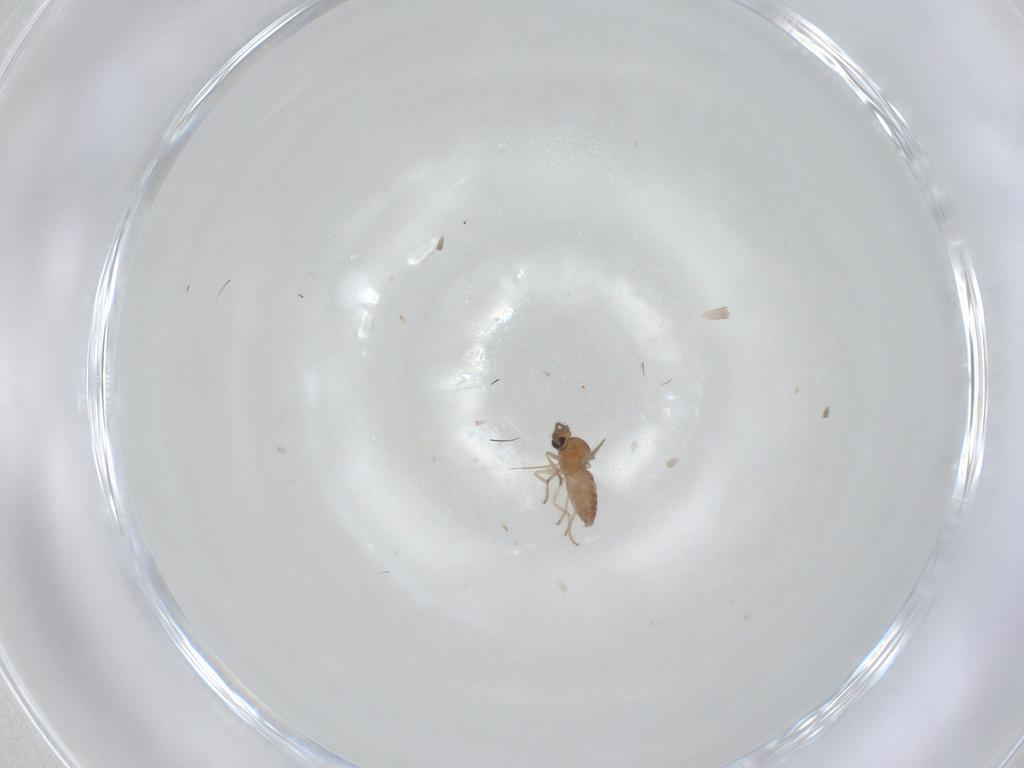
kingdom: Animalia
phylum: Arthropoda
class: Insecta
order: Diptera
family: Ceratopogonidae
